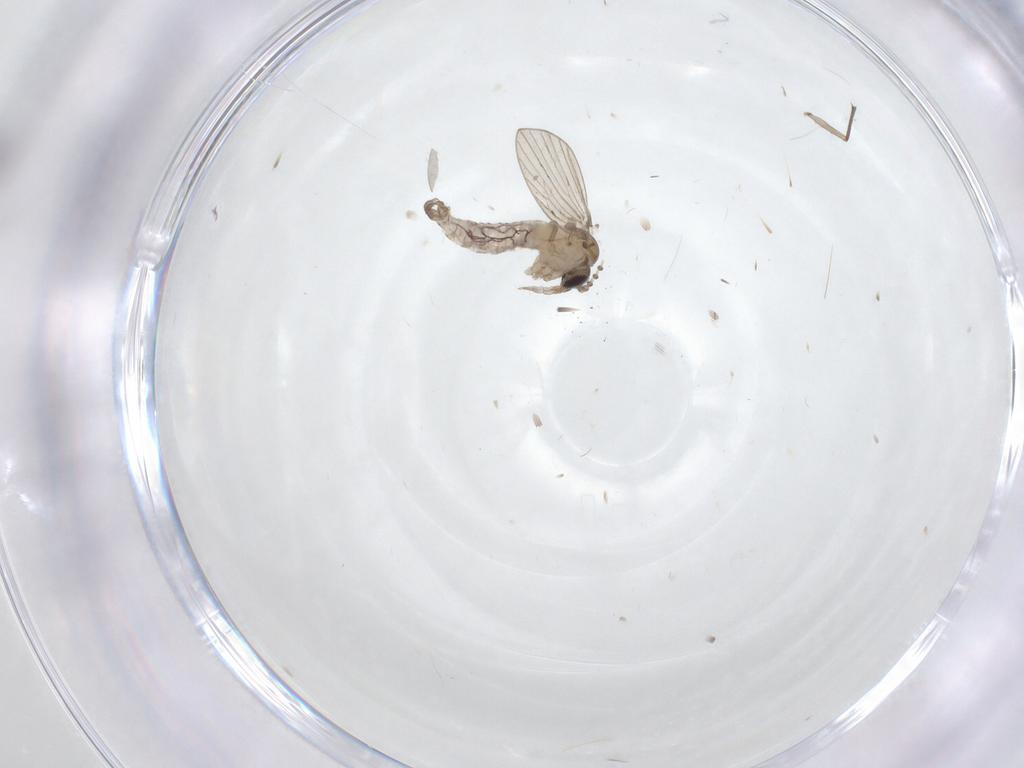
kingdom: Animalia
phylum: Arthropoda
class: Insecta
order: Diptera
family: Psychodidae
